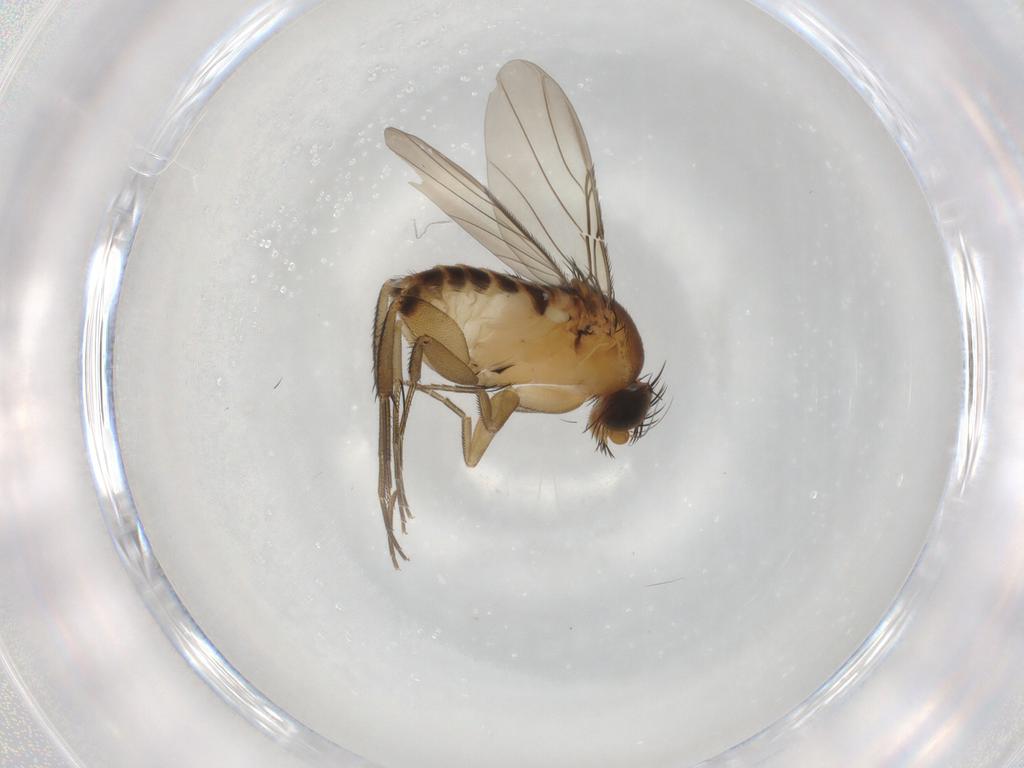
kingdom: Animalia
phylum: Arthropoda
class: Insecta
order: Diptera
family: Phoridae
